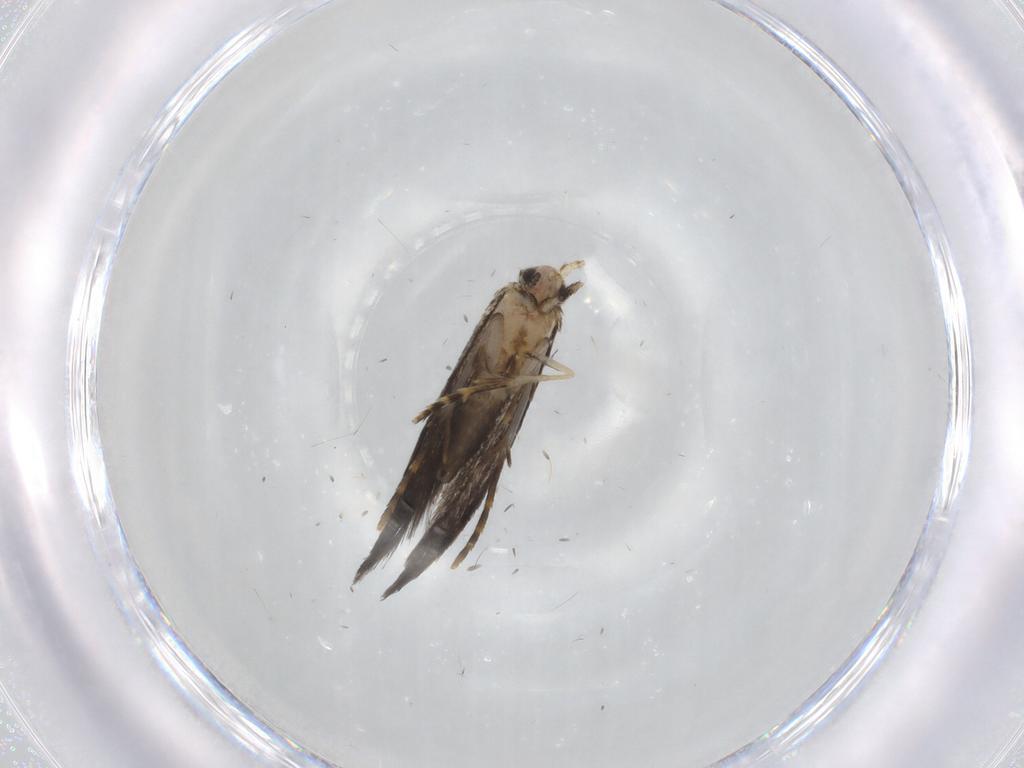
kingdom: Animalia
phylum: Arthropoda
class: Insecta
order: Lepidoptera
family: Tineidae
